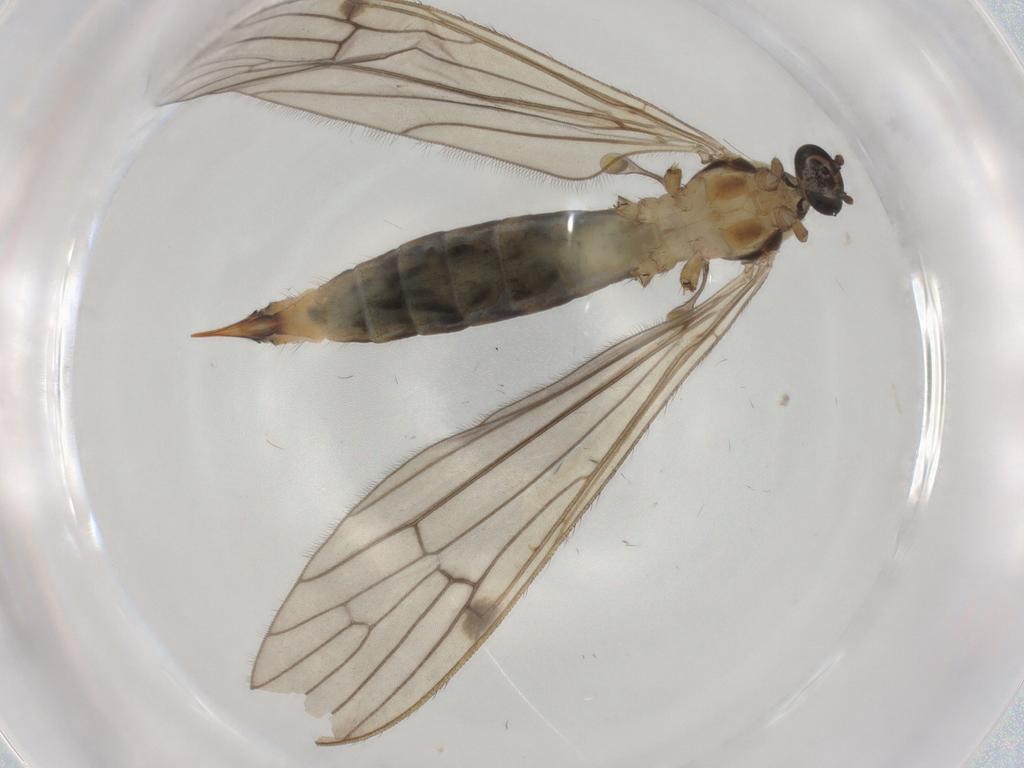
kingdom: Animalia
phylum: Arthropoda
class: Insecta
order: Diptera
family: Limoniidae
